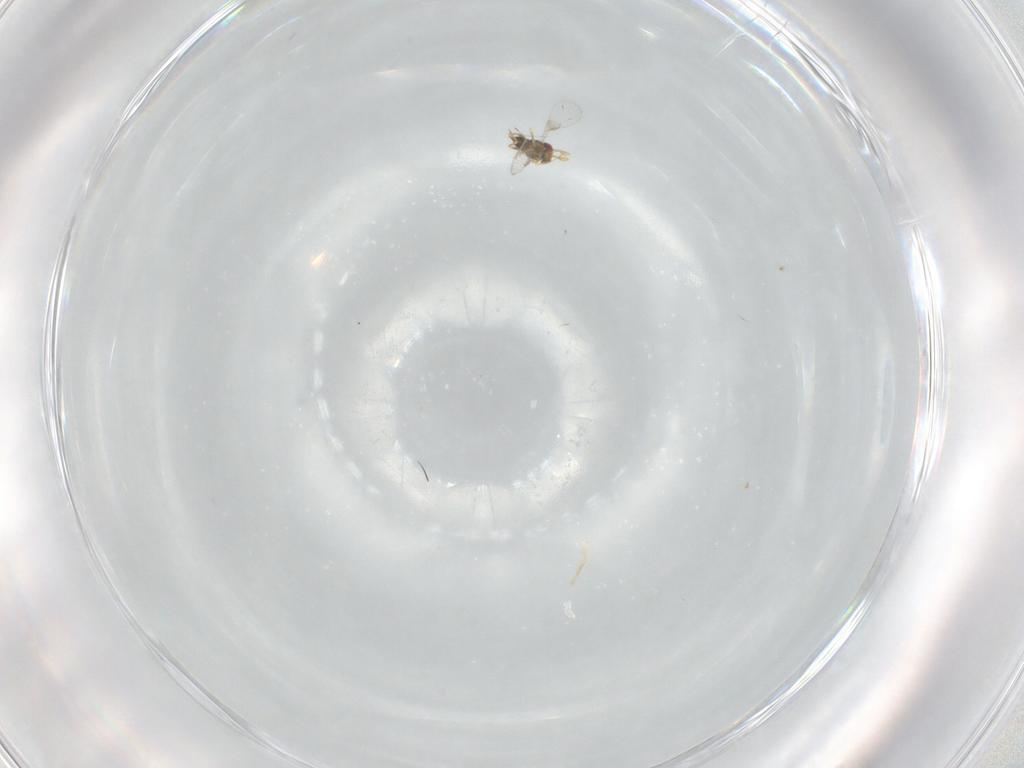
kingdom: Animalia
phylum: Arthropoda
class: Insecta
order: Hymenoptera
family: Trichogrammatidae
